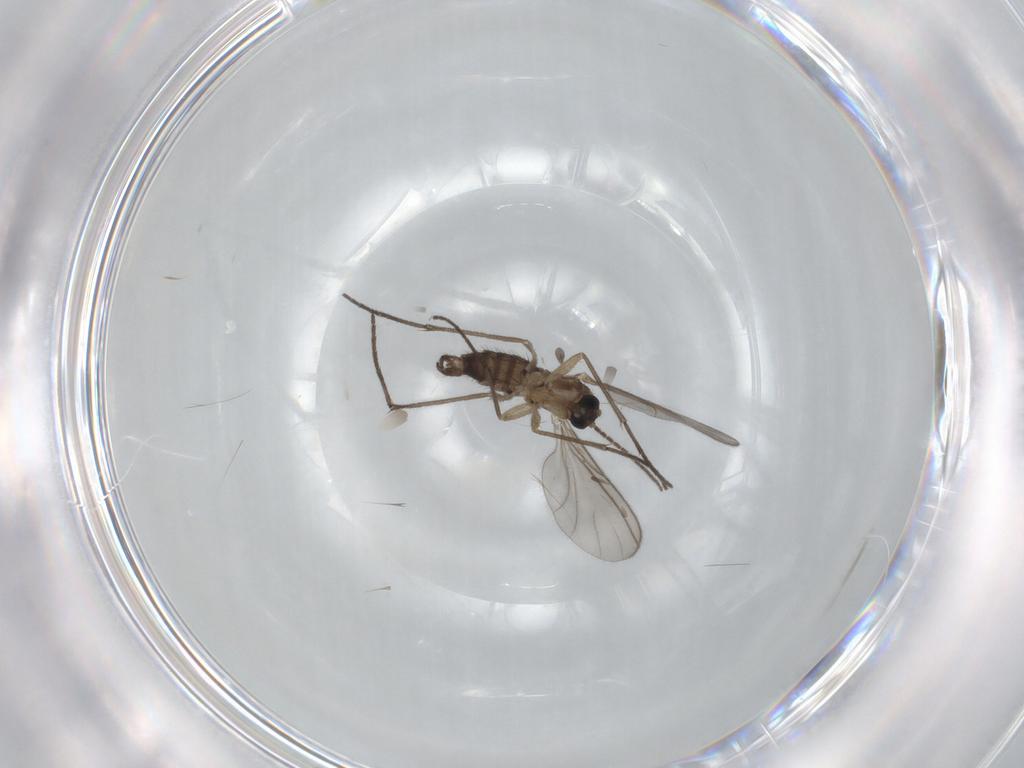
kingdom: Animalia
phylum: Arthropoda
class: Insecta
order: Diptera
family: Sciaridae
